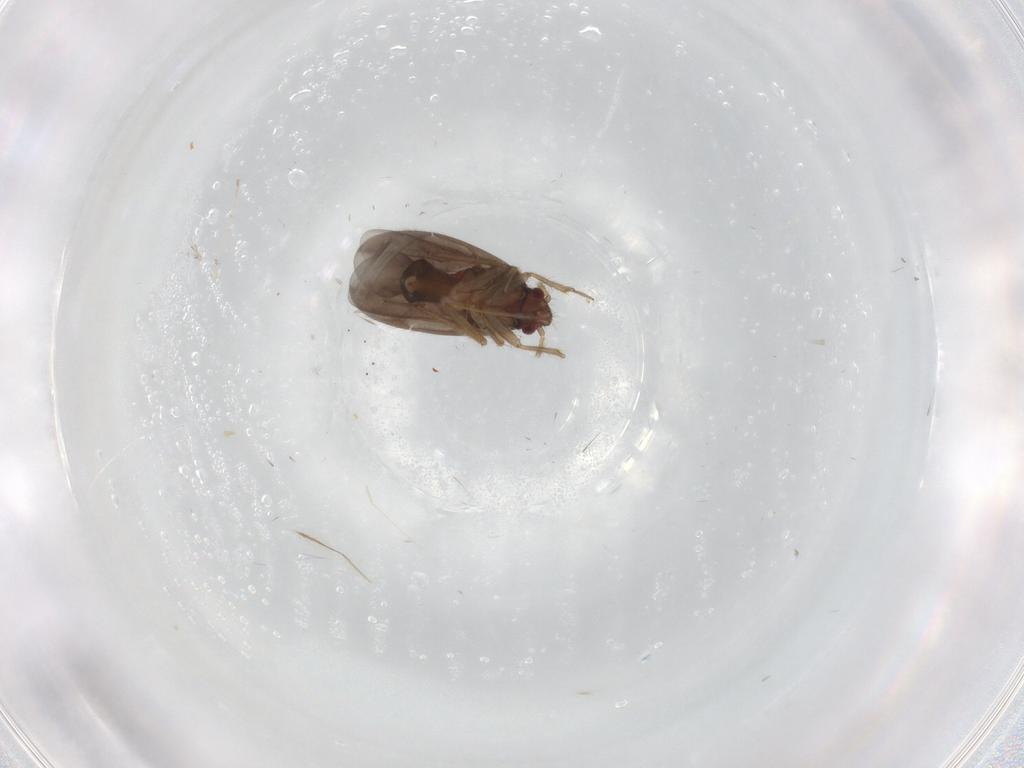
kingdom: Animalia
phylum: Arthropoda
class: Insecta
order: Hemiptera
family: Ceratocombidae
